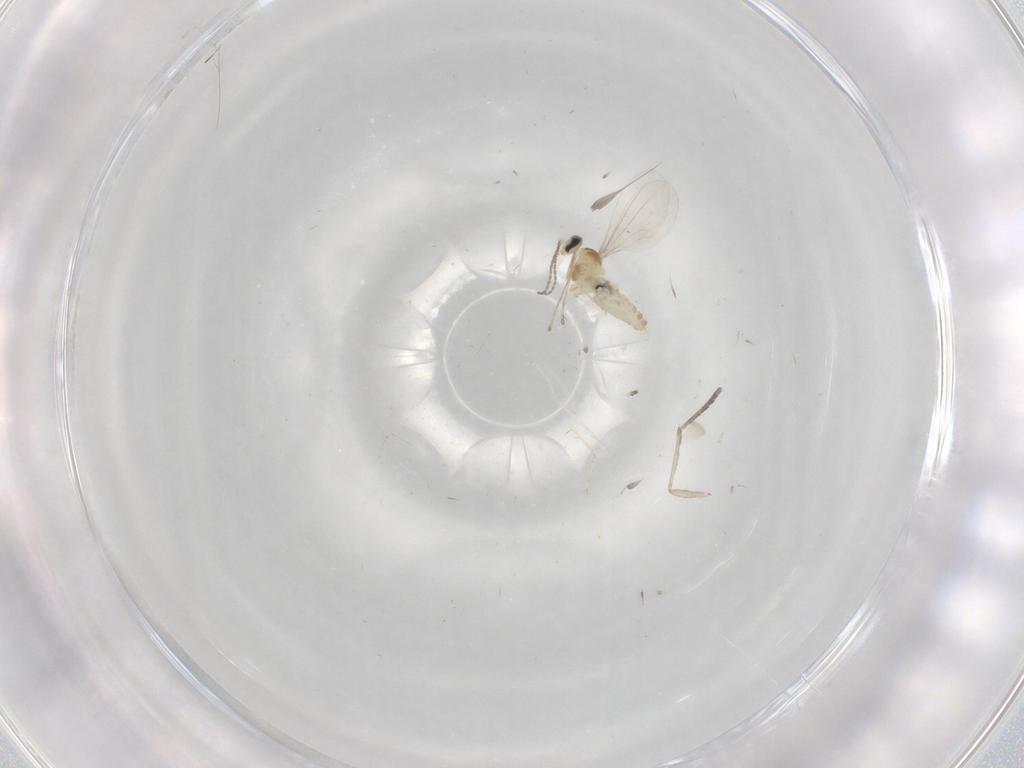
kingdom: Animalia
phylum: Arthropoda
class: Insecta
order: Diptera
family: Cecidomyiidae
